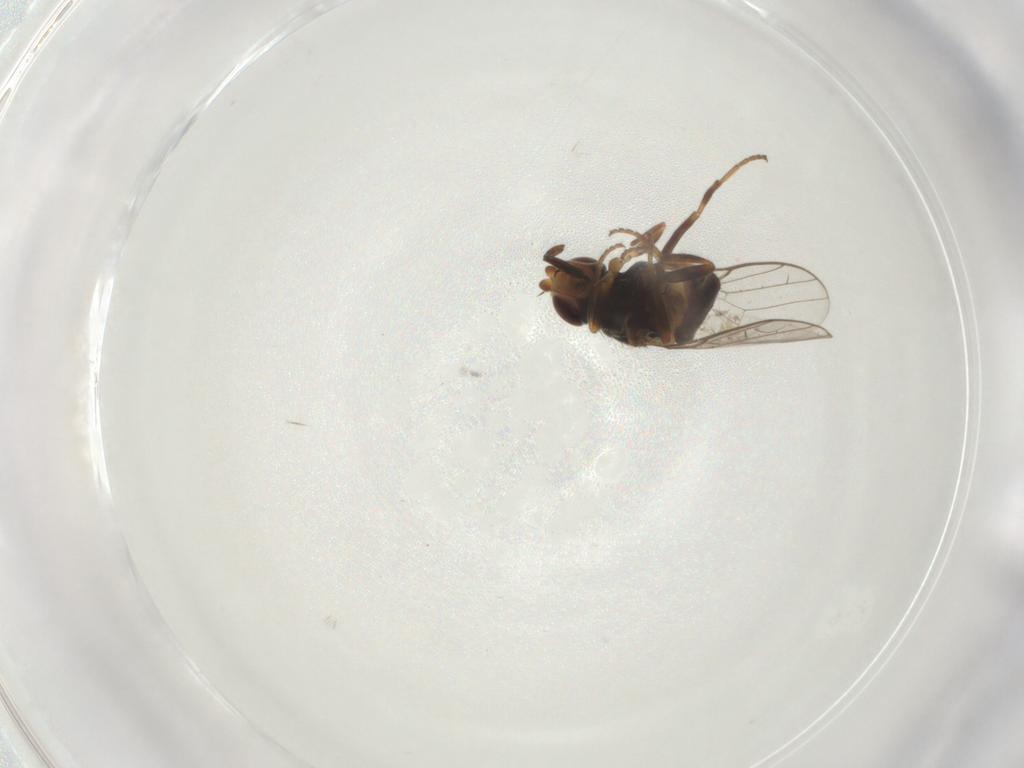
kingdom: Animalia
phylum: Arthropoda
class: Insecta
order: Diptera
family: Chloropidae
